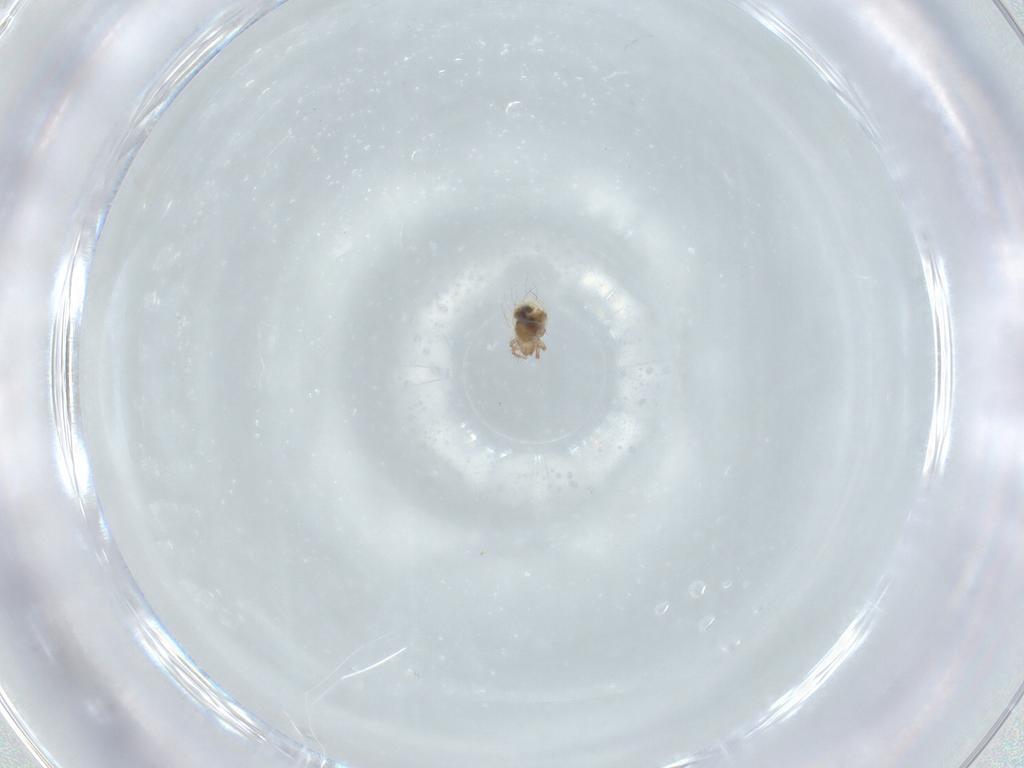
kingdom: Animalia
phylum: Arthropoda
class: Arachnida
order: Sarcoptiformes
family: Mochlozetidae
